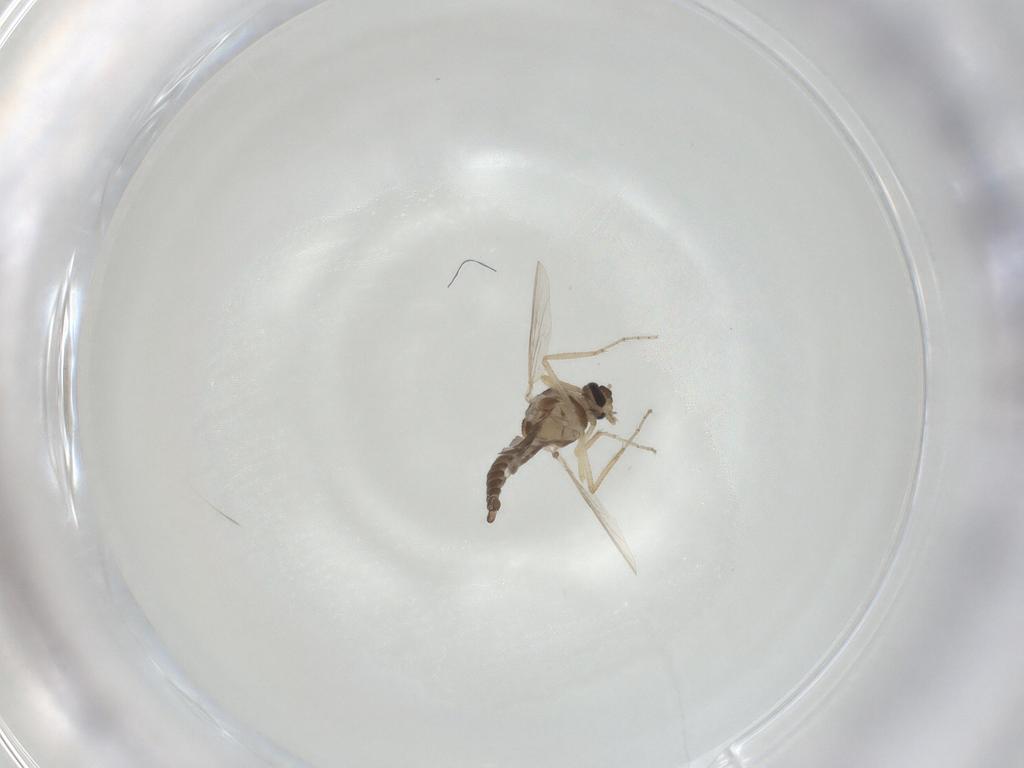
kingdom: Animalia
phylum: Arthropoda
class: Insecta
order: Diptera
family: Ceratopogonidae
